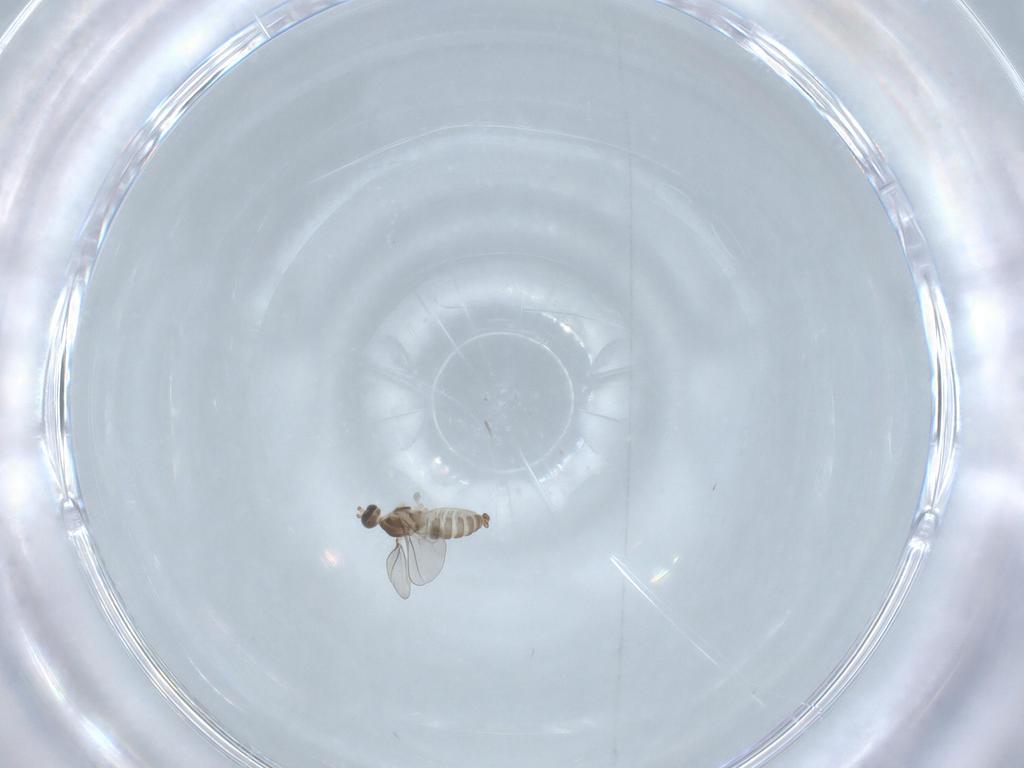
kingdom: Animalia
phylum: Arthropoda
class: Insecta
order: Diptera
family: Cecidomyiidae
